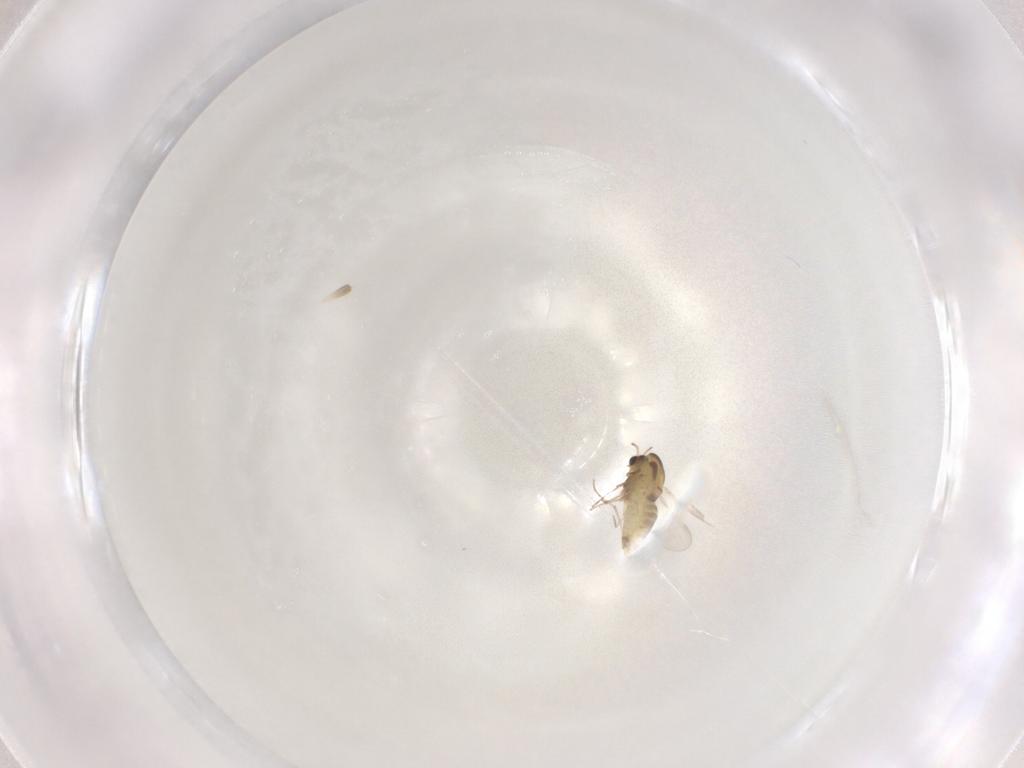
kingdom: Animalia
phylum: Arthropoda
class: Insecta
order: Diptera
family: Chironomidae
